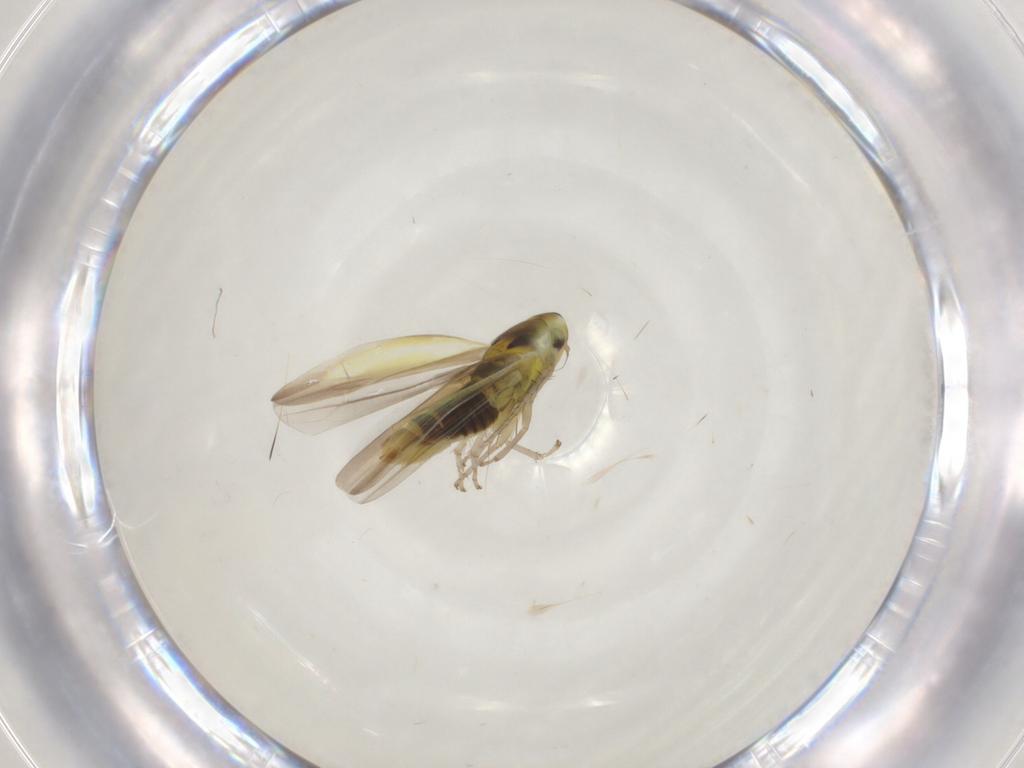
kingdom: Animalia
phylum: Arthropoda
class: Insecta
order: Hemiptera
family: Cicadellidae
